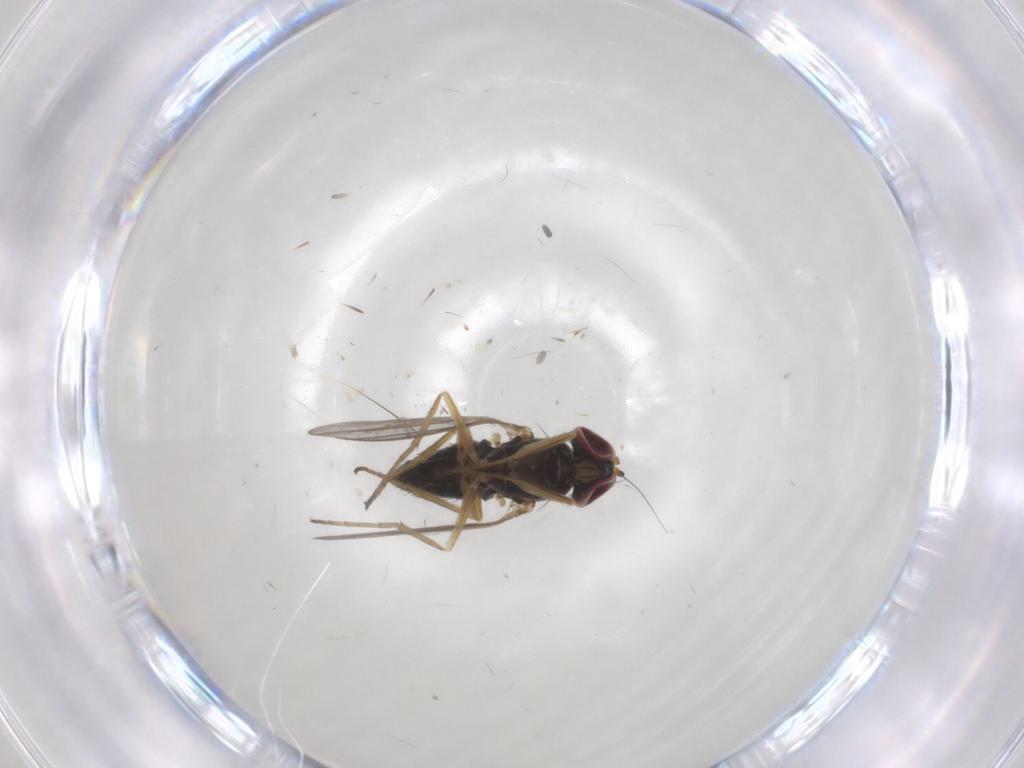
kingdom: Animalia
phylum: Arthropoda
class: Insecta
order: Diptera
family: Dolichopodidae
